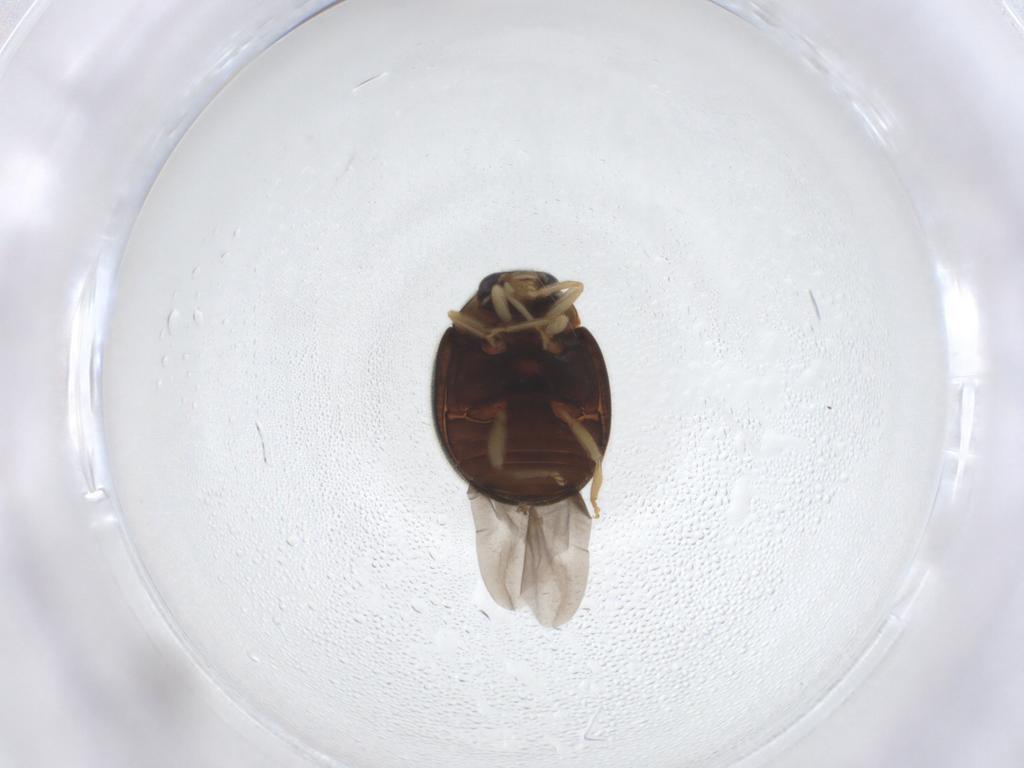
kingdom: Animalia
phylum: Arthropoda
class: Insecta
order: Coleoptera
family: Coccinellidae
